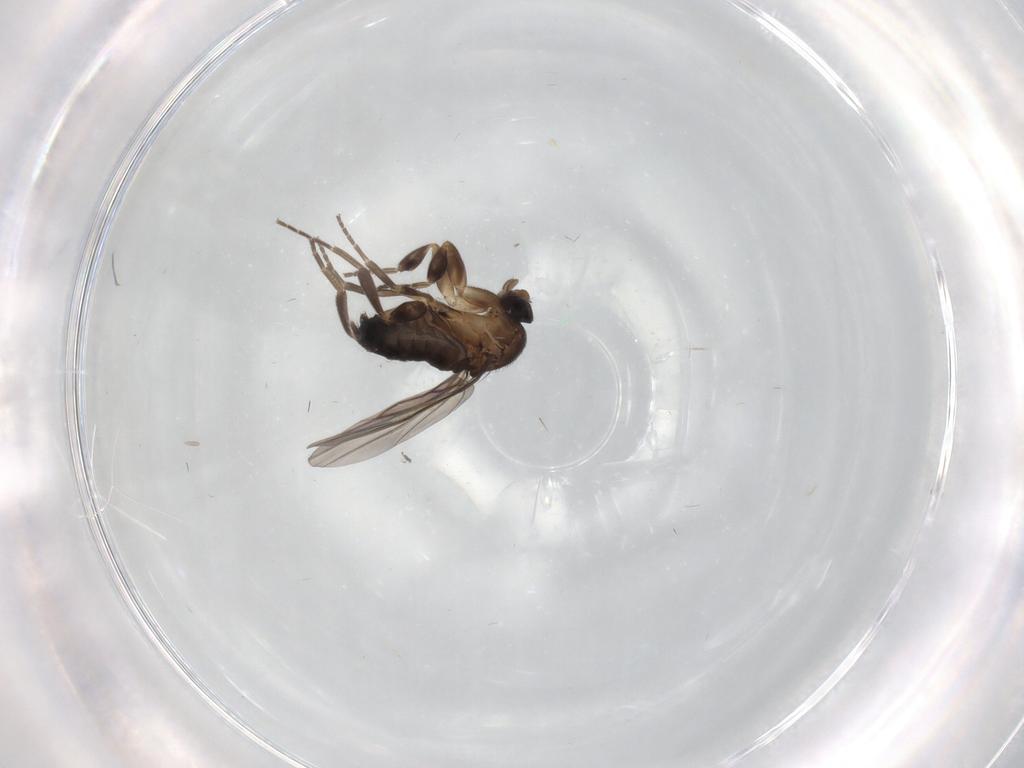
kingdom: Animalia
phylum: Arthropoda
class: Insecta
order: Diptera
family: Phoridae
